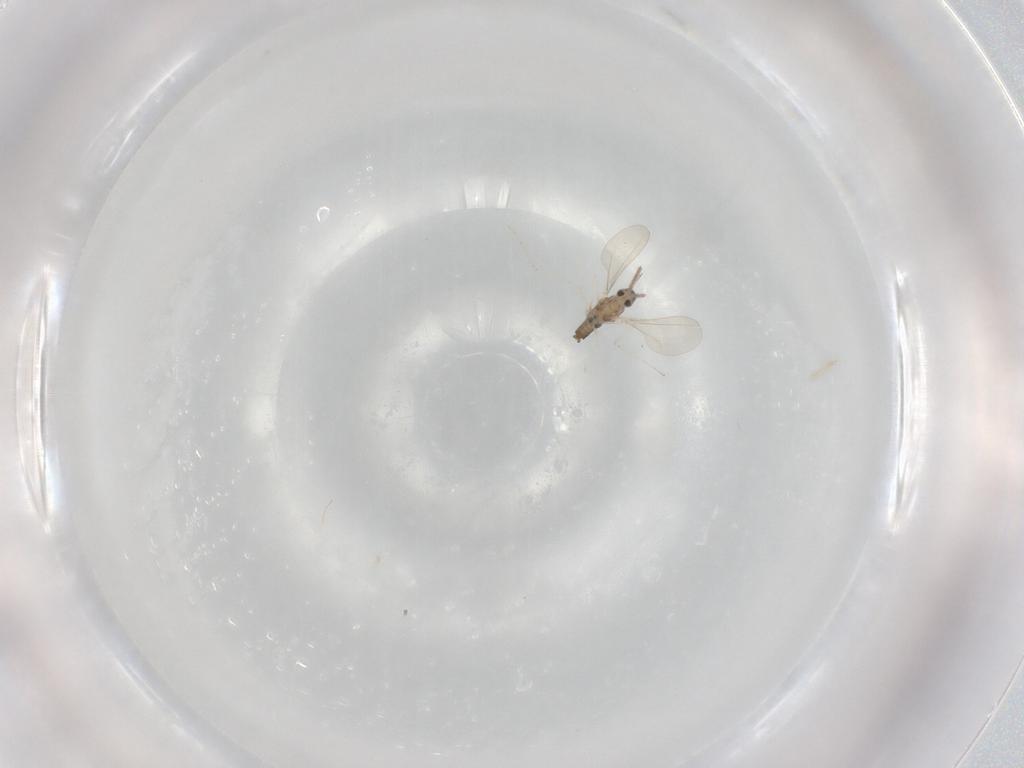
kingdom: Animalia
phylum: Arthropoda
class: Insecta
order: Diptera
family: Cecidomyiidae
